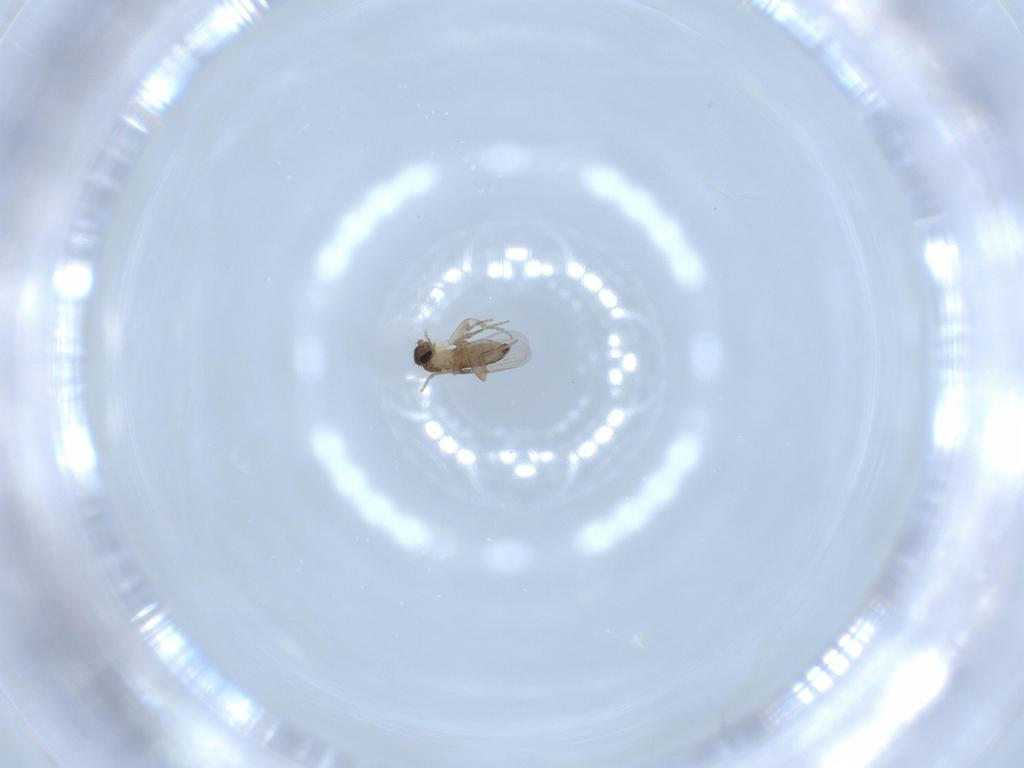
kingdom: Animalia
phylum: Arthropoda
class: Insecta
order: Diptera
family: Phoridae
